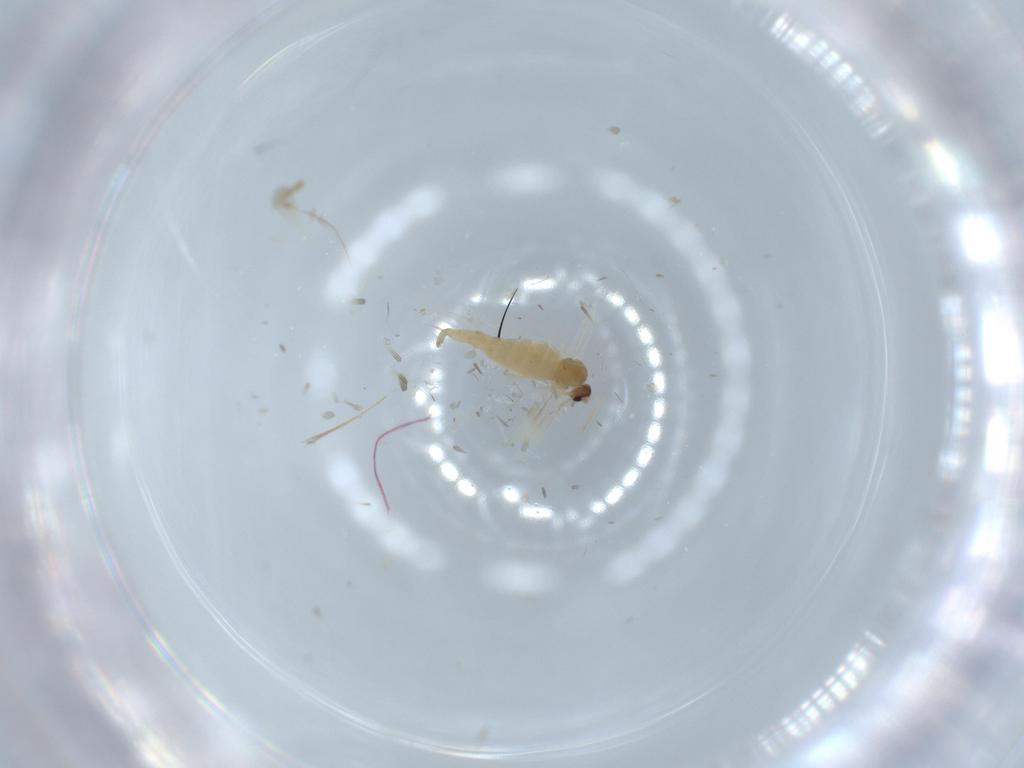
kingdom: Animalia
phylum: Arthropoda
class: Insecta
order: Diptera
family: Cecidomyiidae
